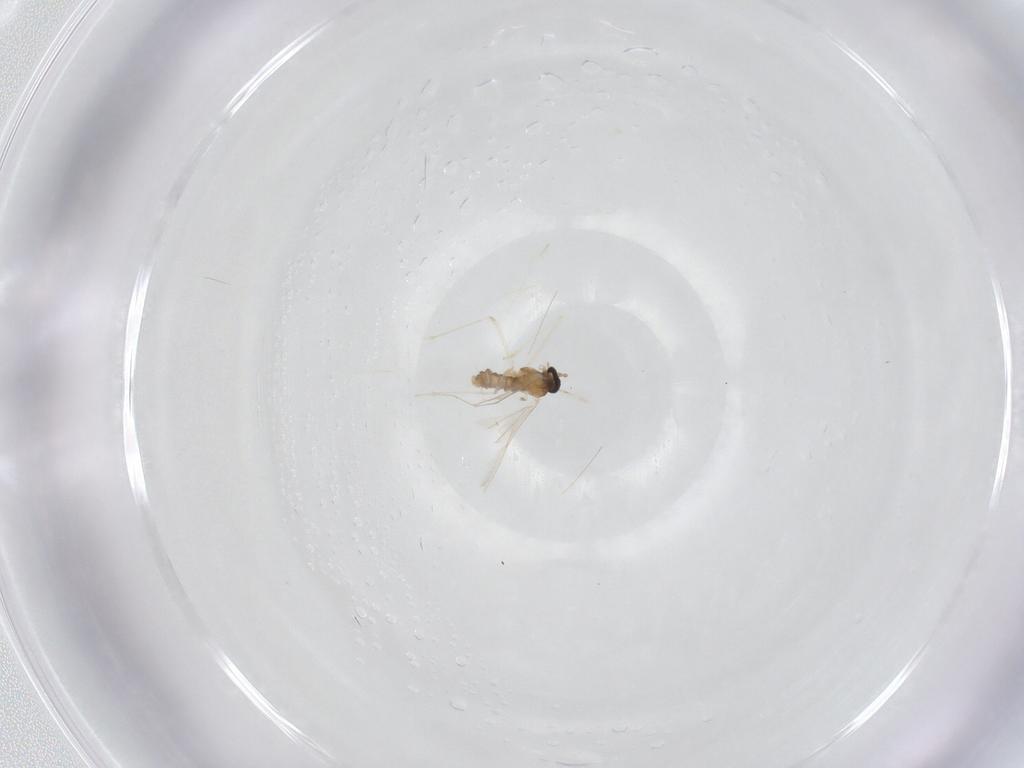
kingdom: Animalia
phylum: Arthropoda
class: Insecta
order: Diptera
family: Cecidomyiidae
